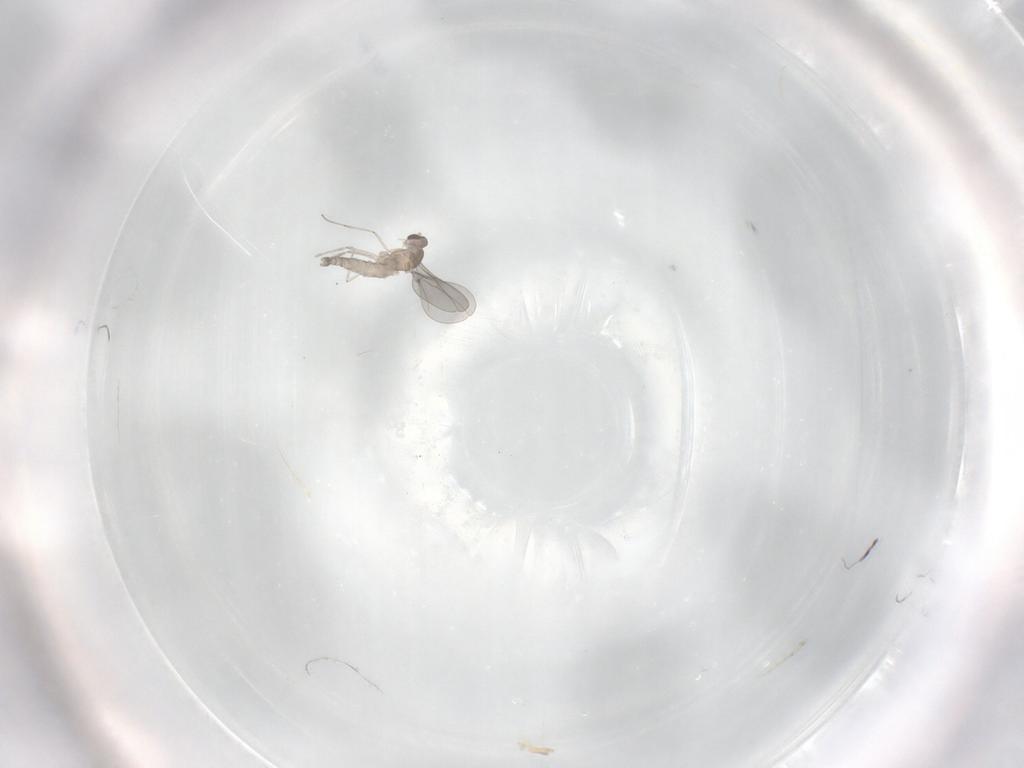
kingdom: Animalia
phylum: Arthropoda
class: Insecta
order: Diptera
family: Cecidomyiidae
